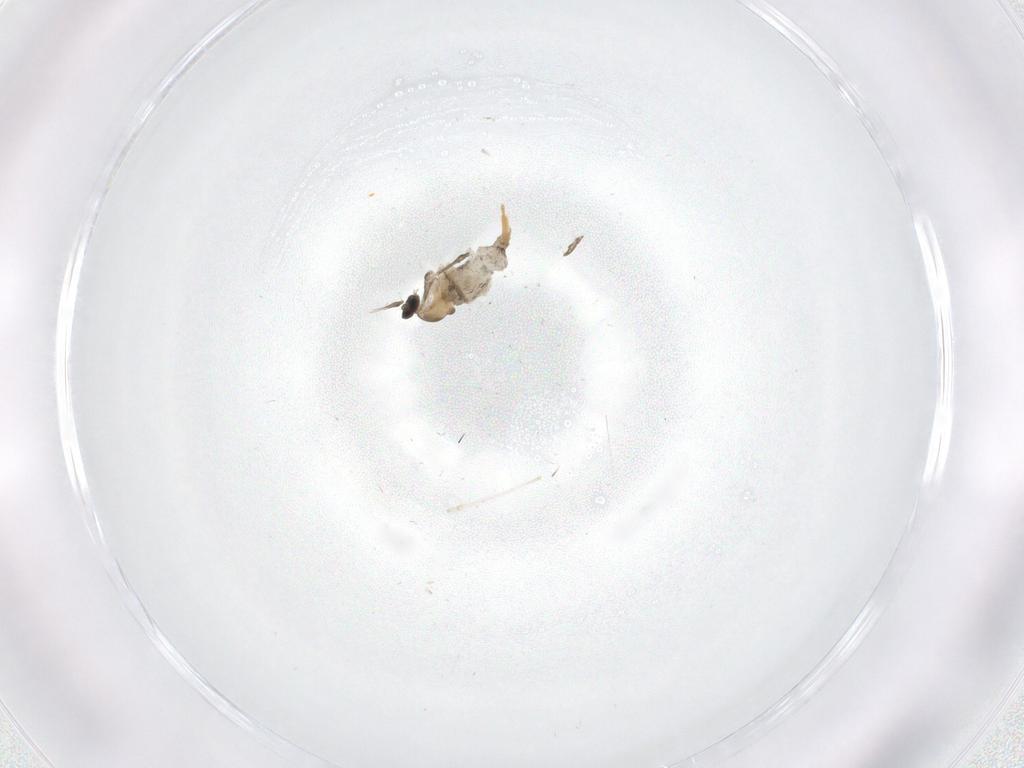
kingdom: Animalia
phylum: Arthropoda
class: Insecta
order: Diptera
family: Cecidomyiidae
